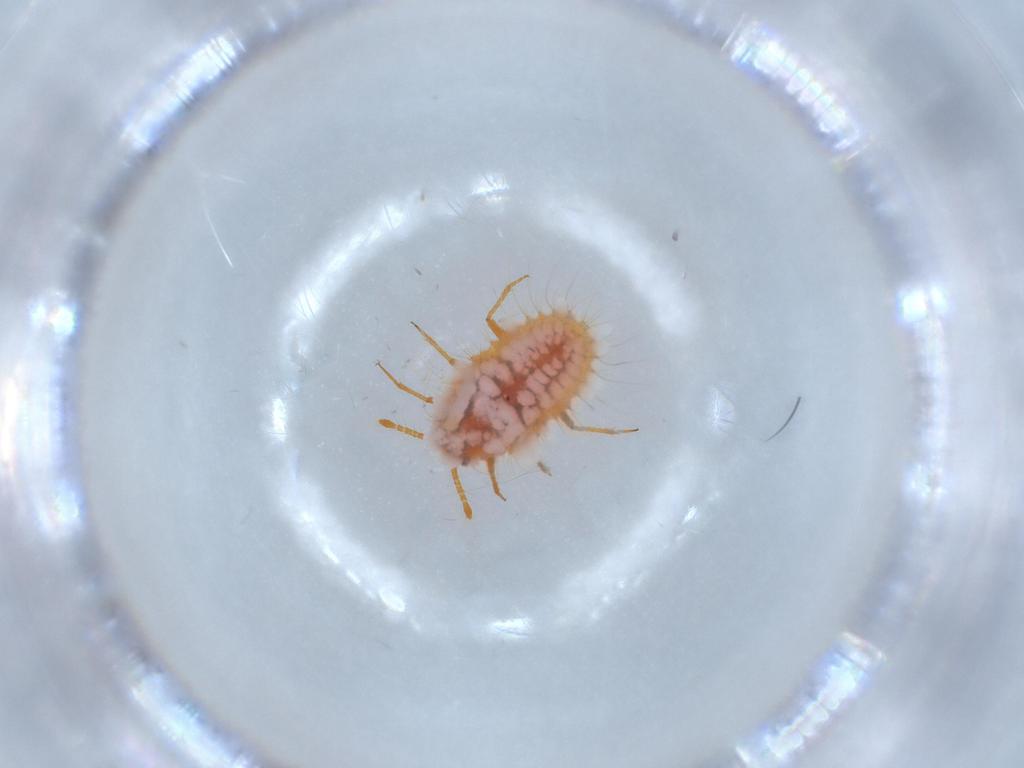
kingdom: Animalia
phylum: Arthropoda
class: Insecta
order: Hemiptera
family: Coccoidea_incertae_sedis
